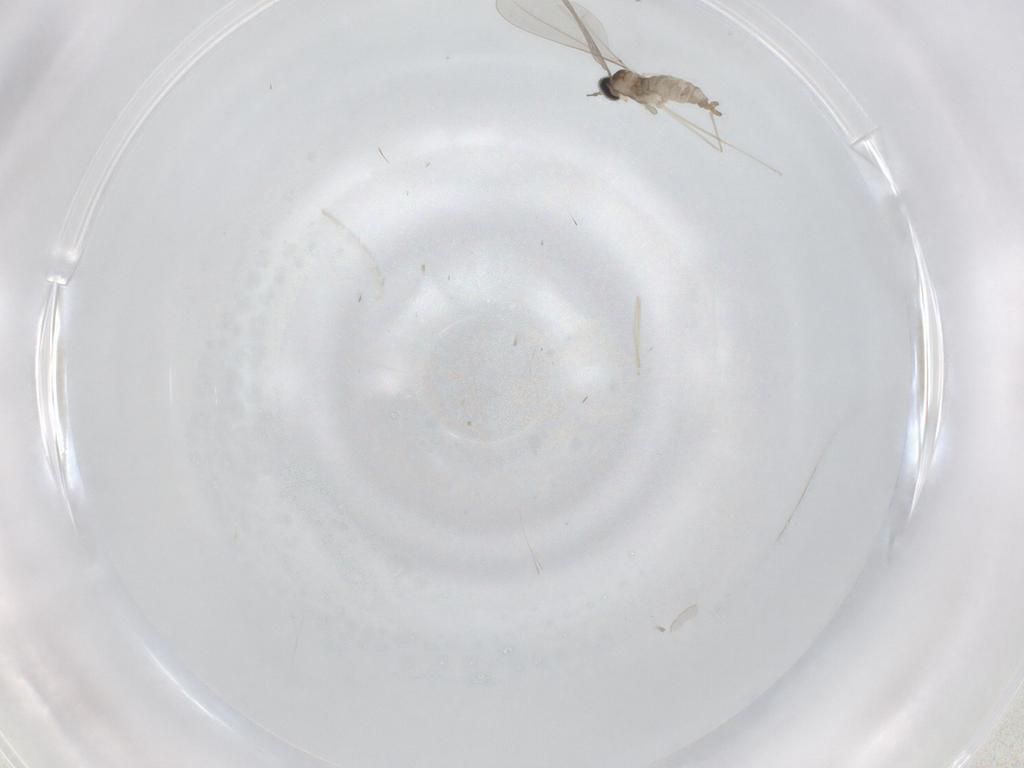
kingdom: Animalia
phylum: Arthropoda
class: Insecta
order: Diptera
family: Cecidomyiidae
